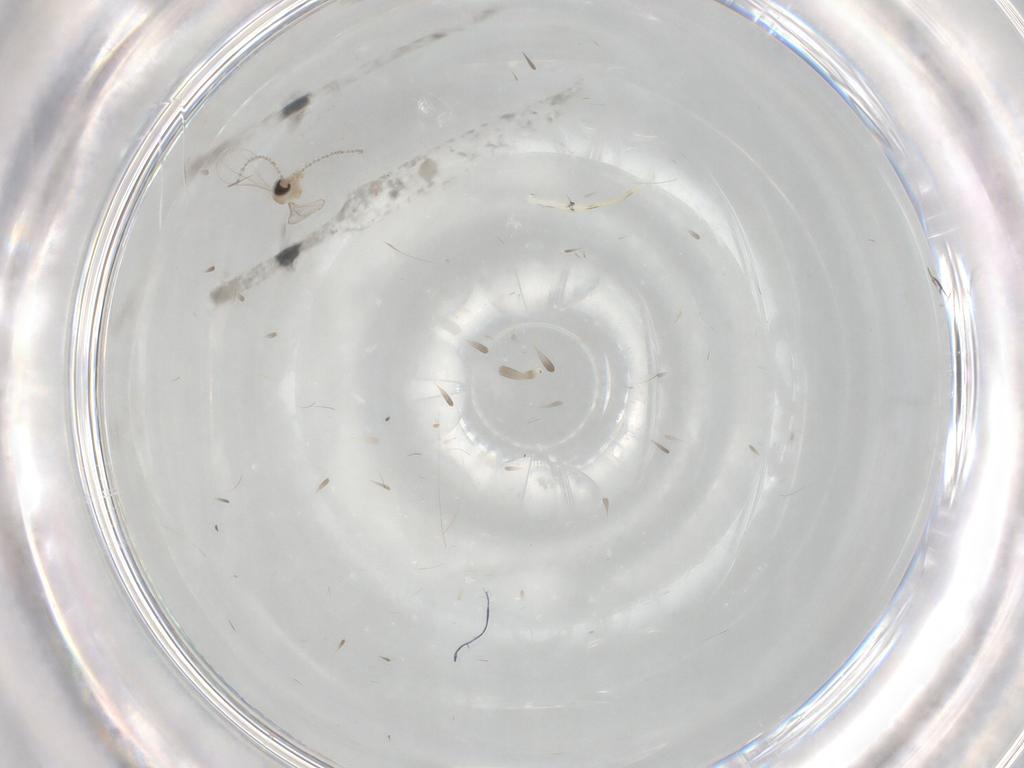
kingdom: Animalia
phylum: Arthropoda
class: Insecta
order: Diptera
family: Cecidomyiidae
